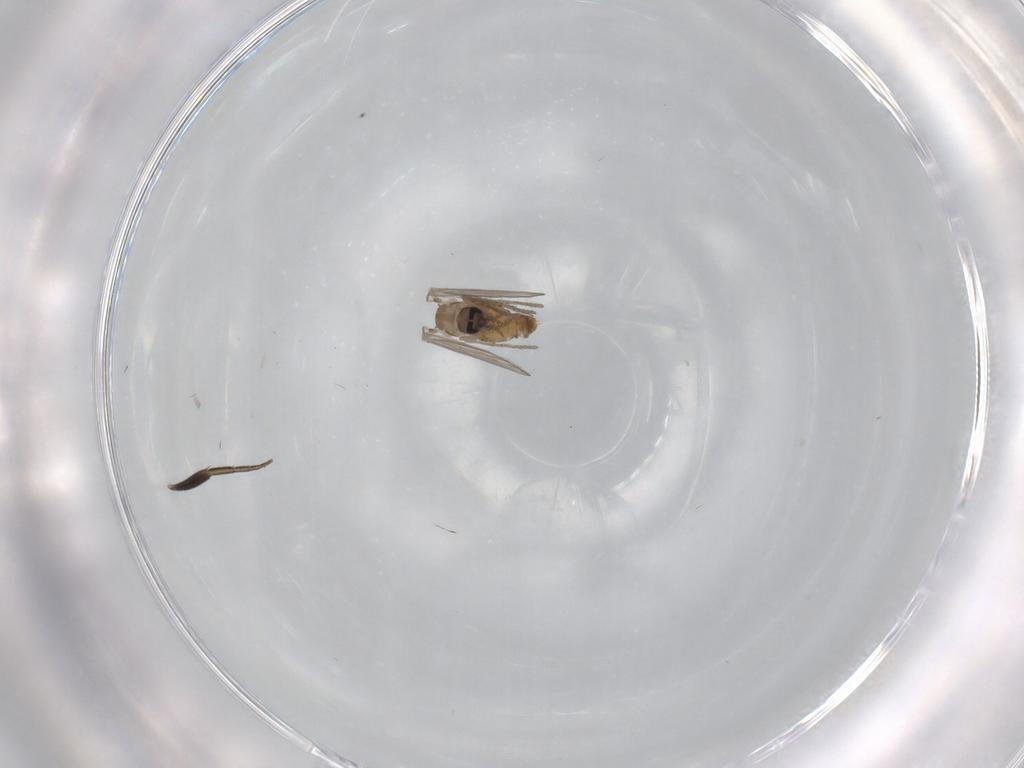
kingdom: Animalia
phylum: Arthropoda
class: Insecta
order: Diptera
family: Psychodidae
